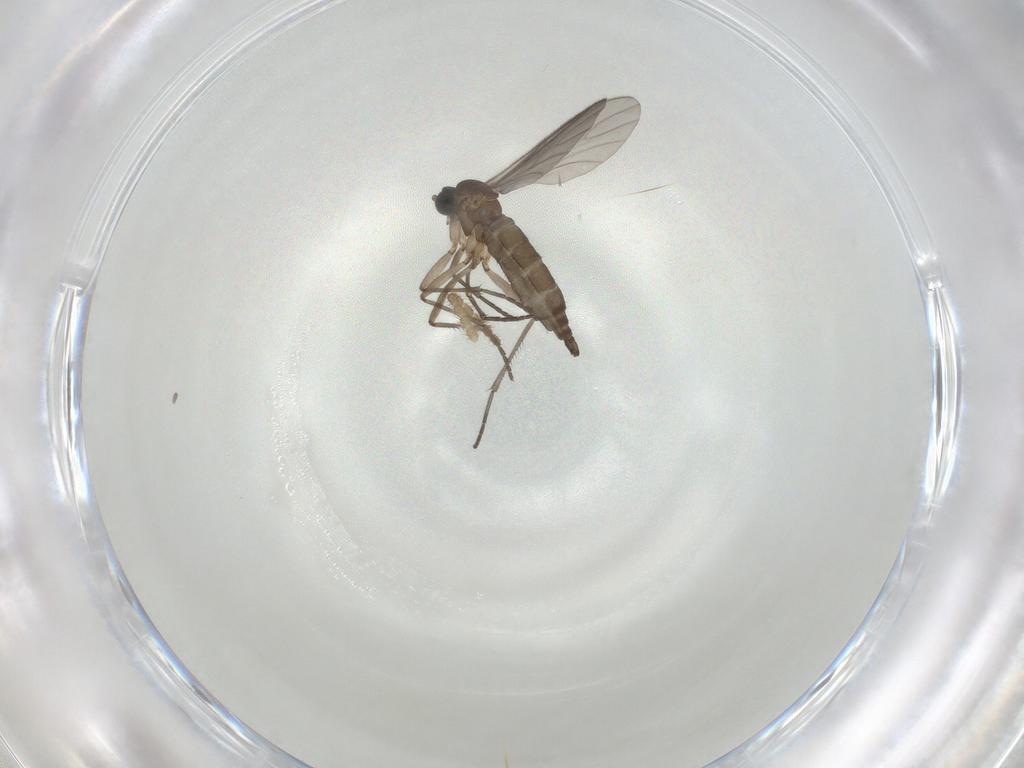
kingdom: Animalia
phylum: Arthropoda
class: Insecta
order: Diptera
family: Sciaridae
